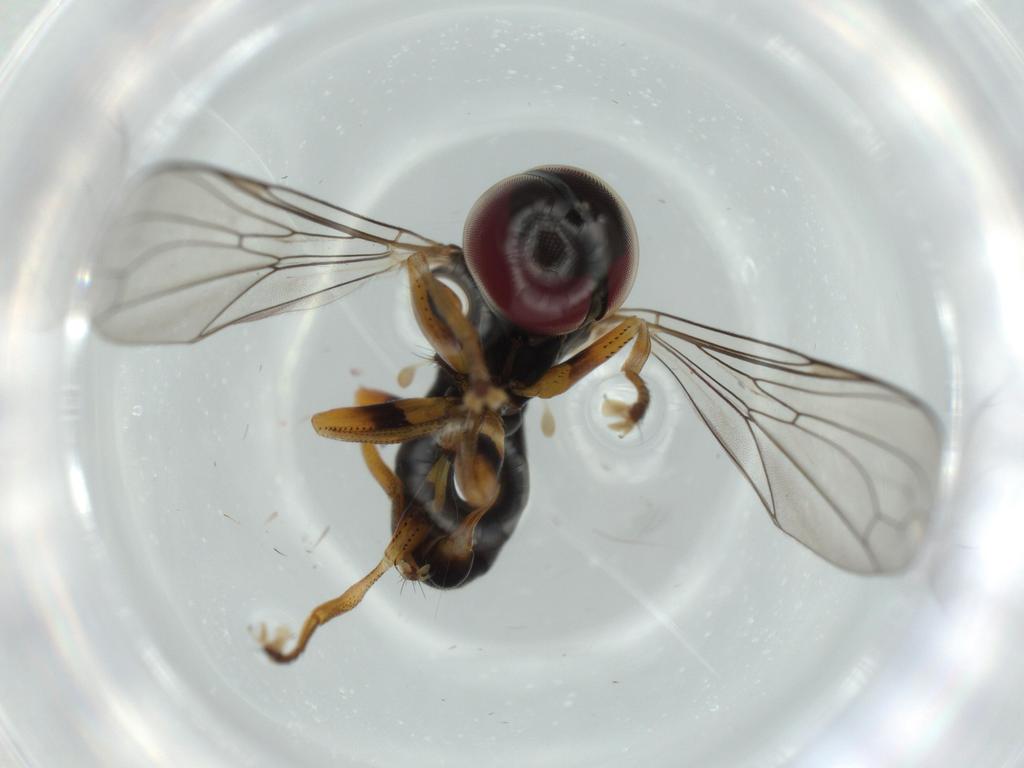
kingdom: Animalia
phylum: Arthropoda
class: Insecta
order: Diptera
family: Pipunculidae
